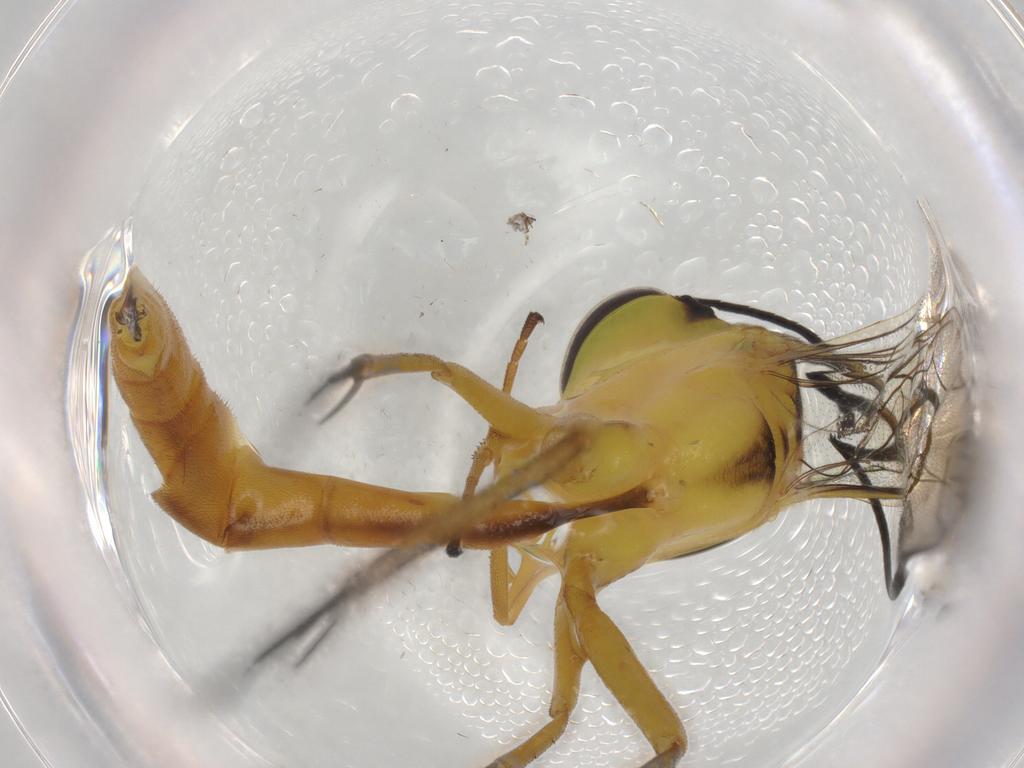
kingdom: Animalia
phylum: Arthropoda
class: Insecta
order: Hymenoptera
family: Ichneumonidae
